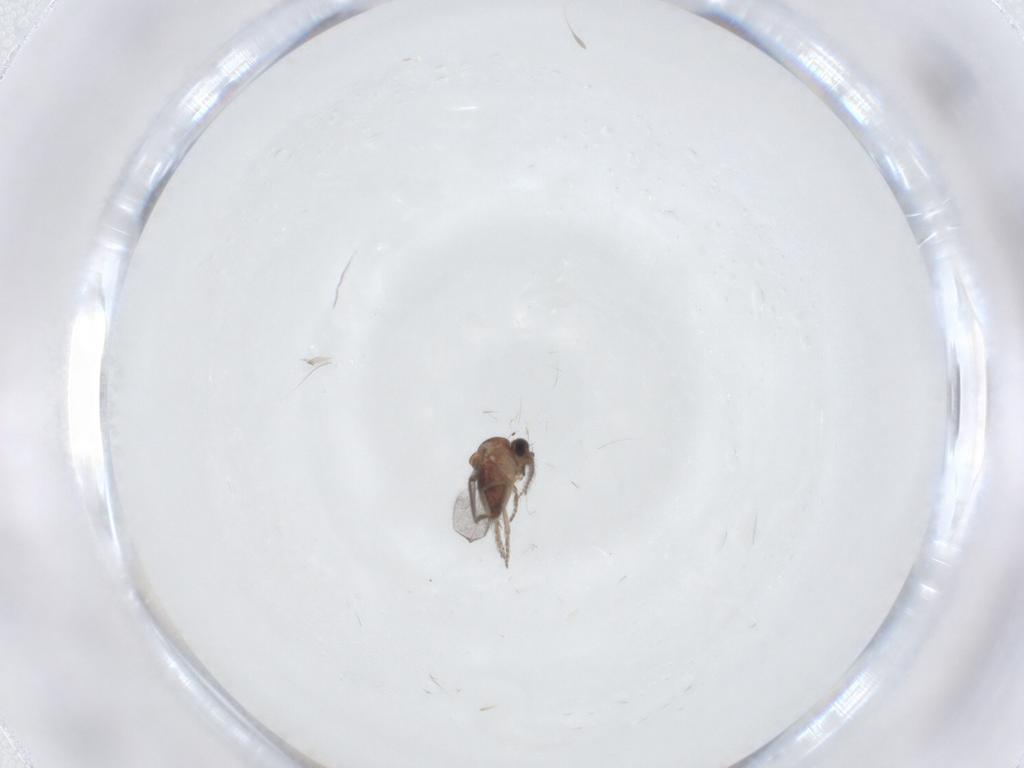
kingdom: Animalia
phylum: Arthropoda
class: Insecta
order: Diptera
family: Ceratopogonidae
